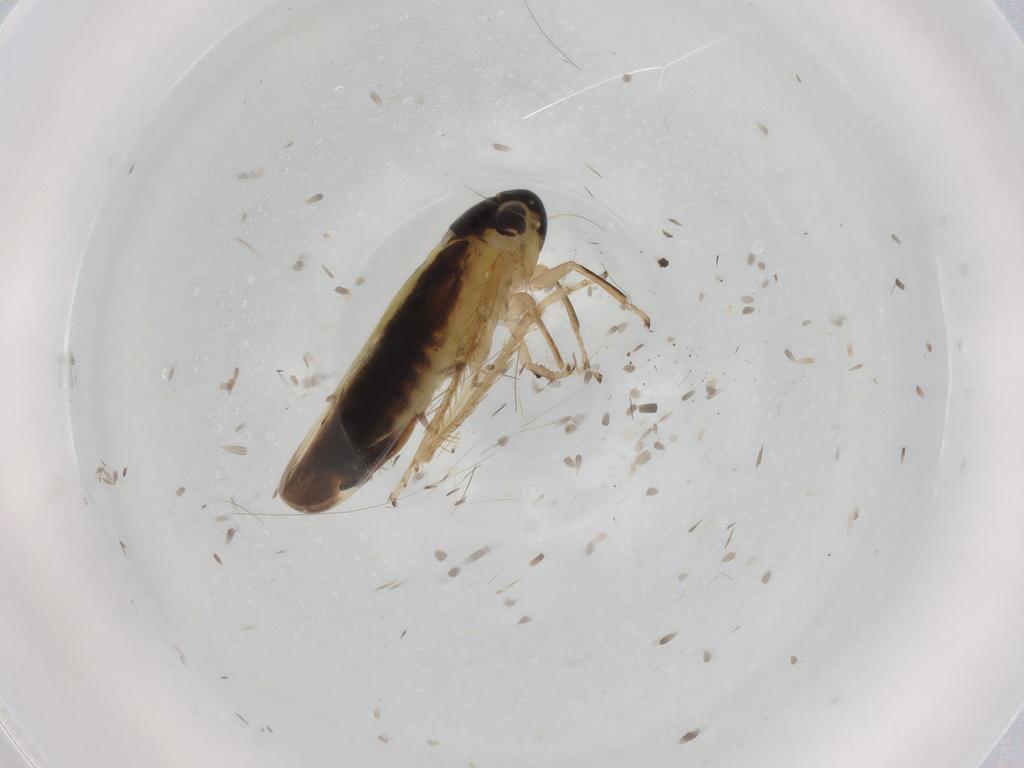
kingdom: Animalia
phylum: Arthropoda
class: Insecta
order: Hemiptera
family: Cicadellidae
